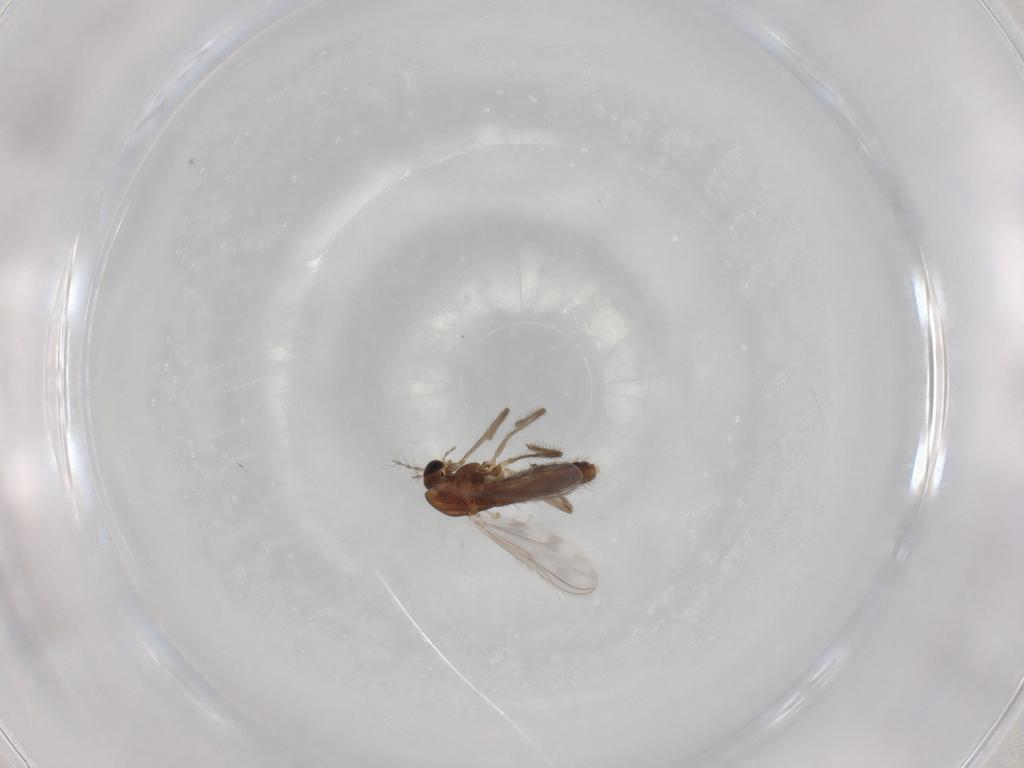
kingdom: Animalia
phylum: Arthropoda
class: Insecta
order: Diptera
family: Chironomidae
